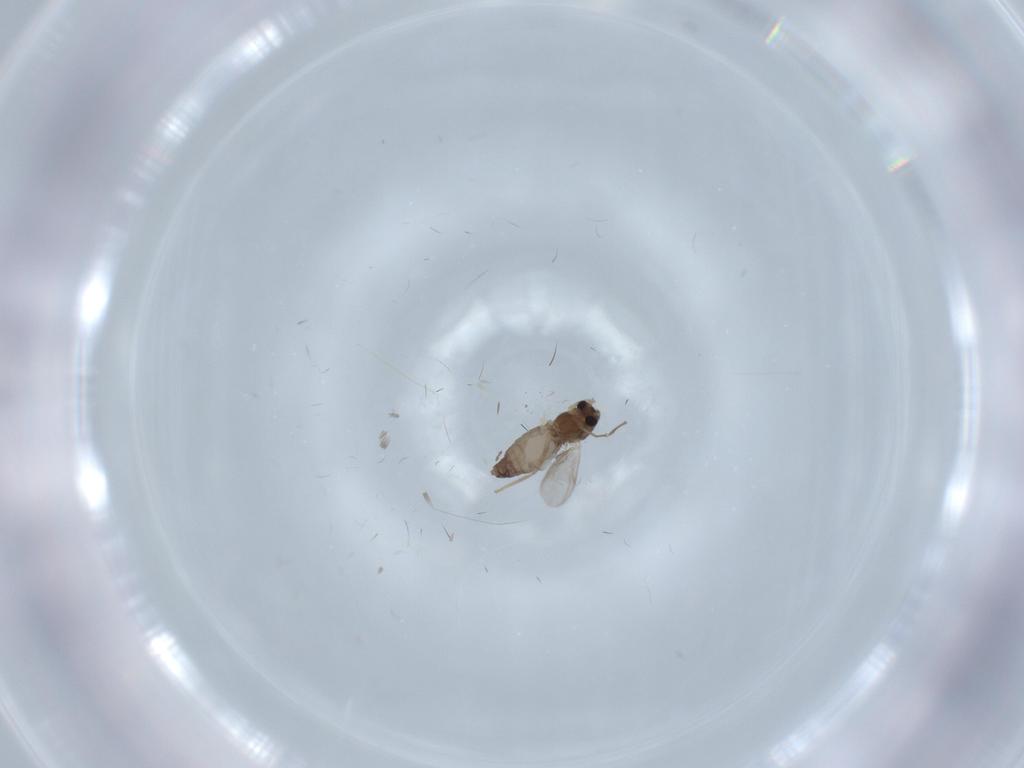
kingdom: Animalia
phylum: Arthropoda
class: Insecta
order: Diptera
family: Chironomidae
